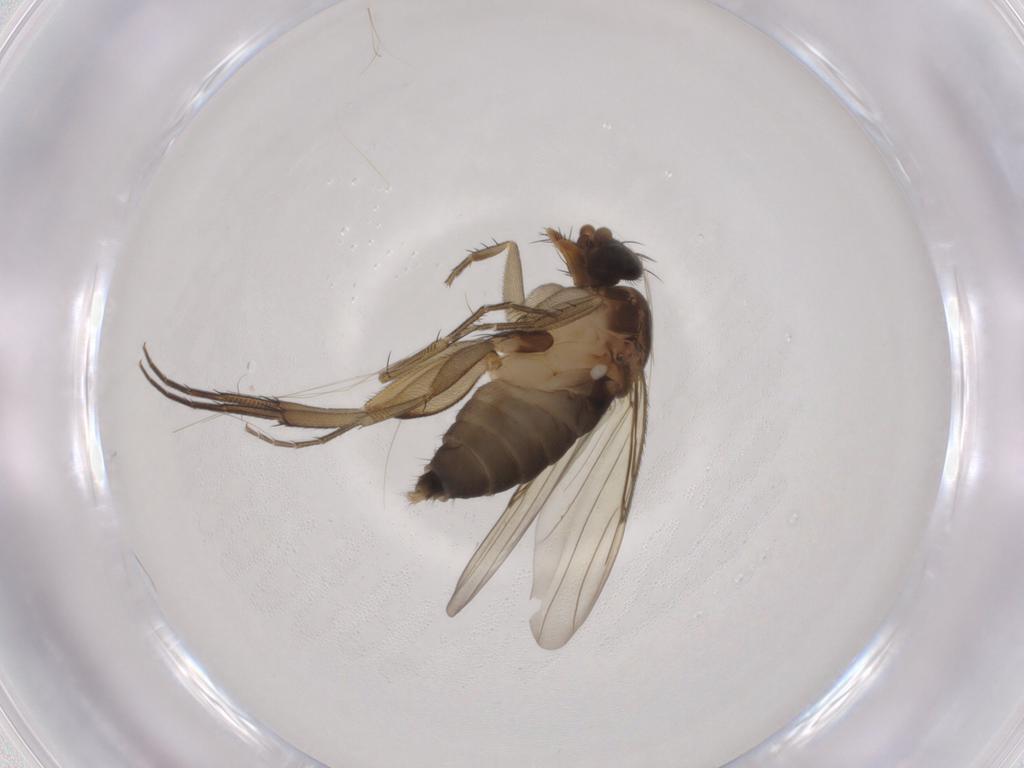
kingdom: Animalia
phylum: Arthropoda
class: Insecta
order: Diptera
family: Phoridae
